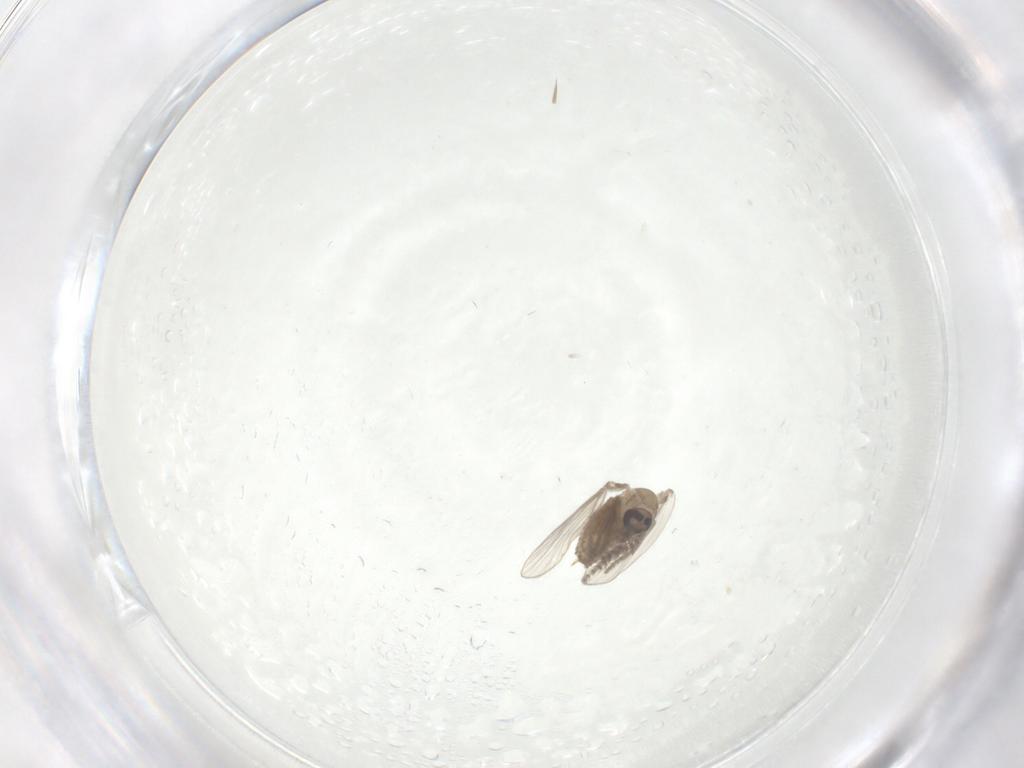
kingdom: Animalia
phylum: Arthropoda
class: Insecta
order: Diptera
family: Psychodidae
